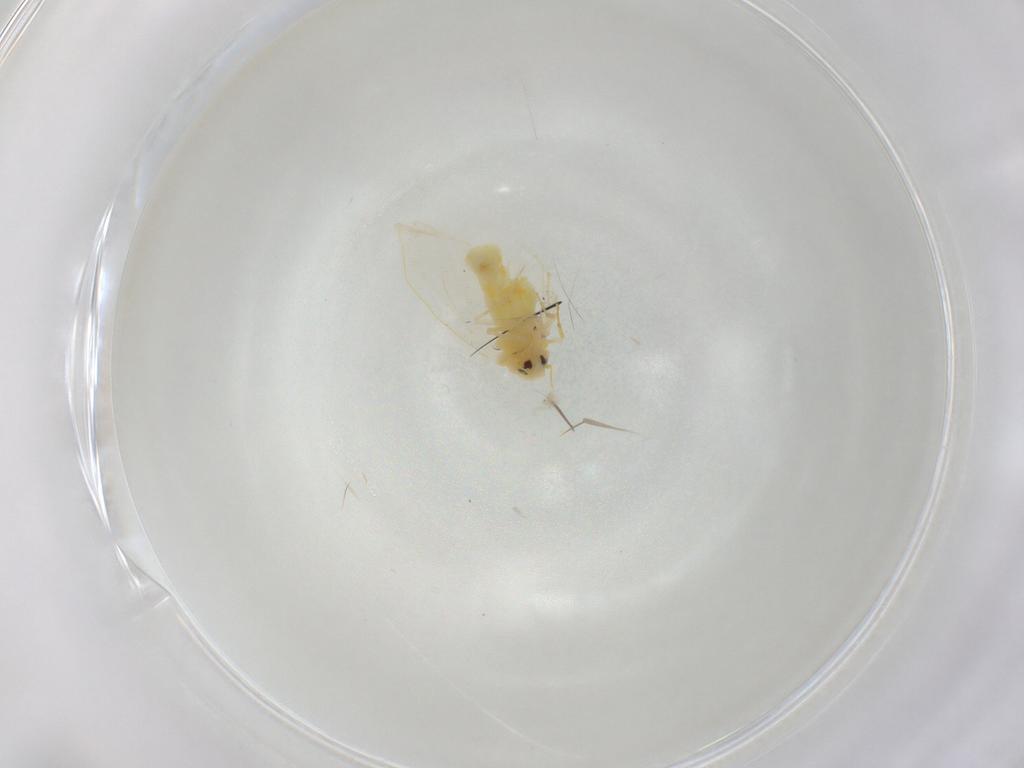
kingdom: Animalia
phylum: Arthropoda
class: Insecta
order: Hemiptera
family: Aleyrodidae
